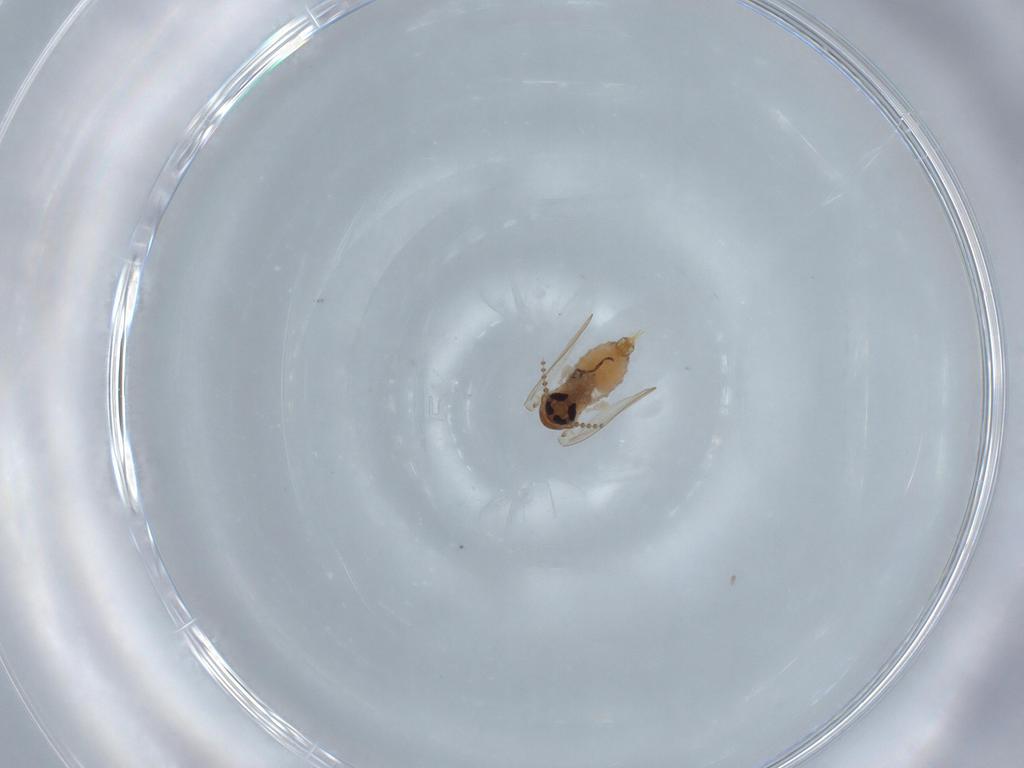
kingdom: Animalia
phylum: Arthropoda
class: Insecta
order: Diptera
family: Psychodidae
